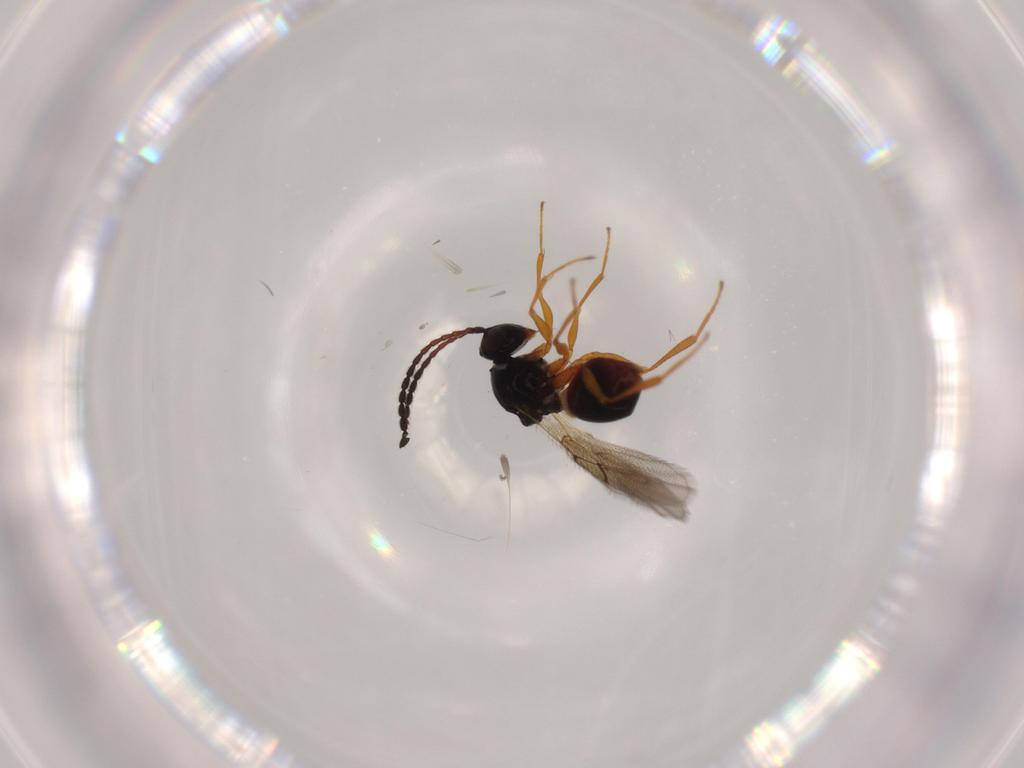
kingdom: Animalia
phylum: Arthropoda
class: Insecta
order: Hymenoptera
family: Figitidae
